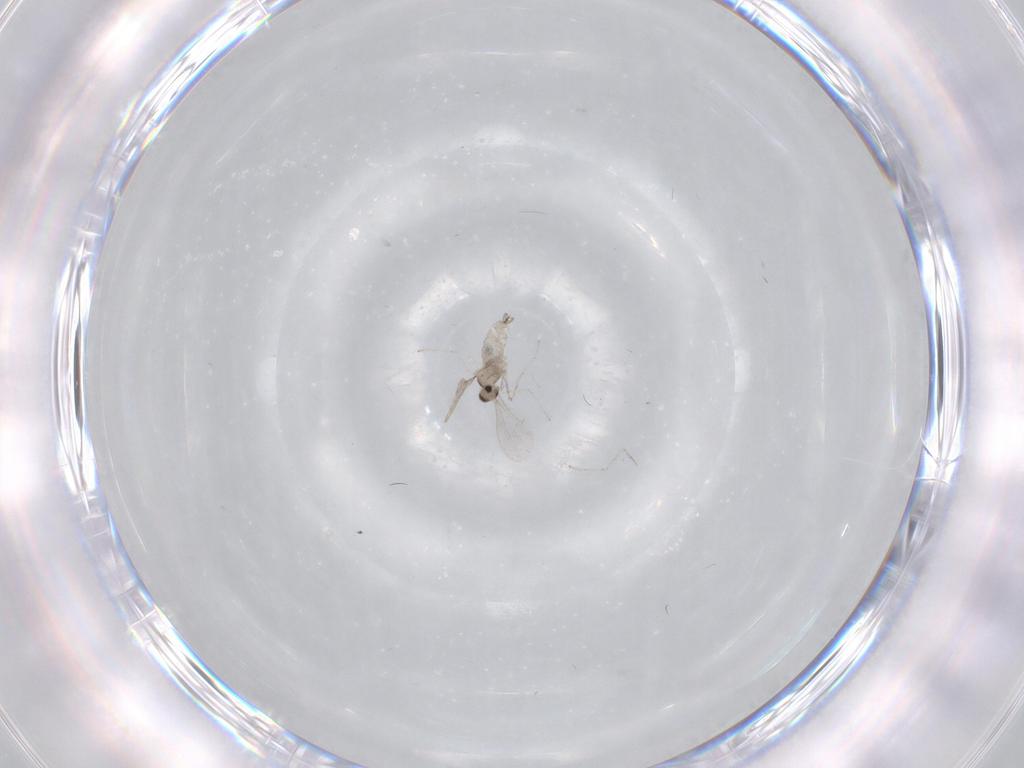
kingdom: Animalia
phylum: Arthropoda
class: Insecta
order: Diptera
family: Cecidomyiidae
